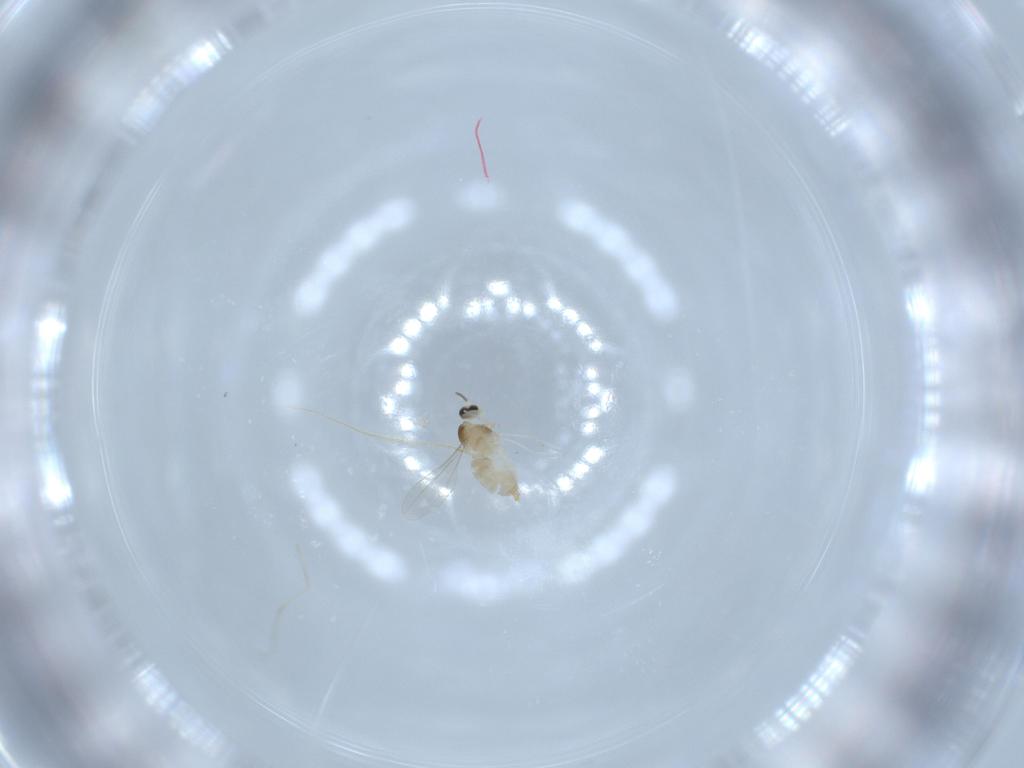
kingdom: Animalia
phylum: Arthropoda
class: Insecta
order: Diptera
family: Cecidomyiidae
